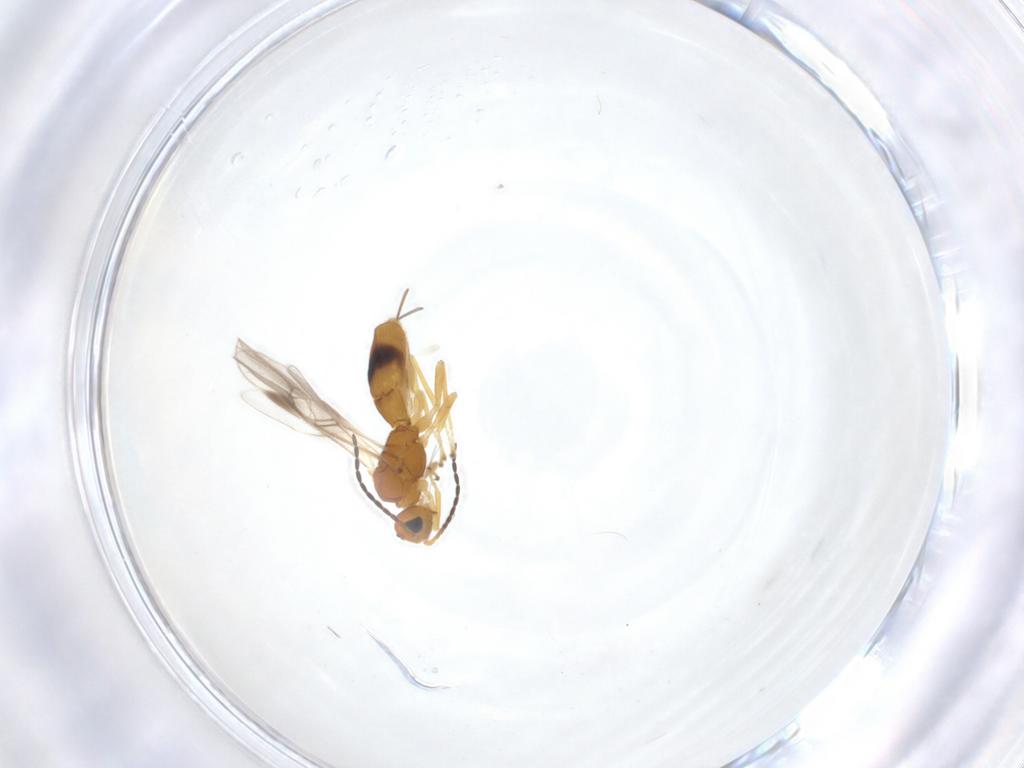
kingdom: Animalia
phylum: Arthropoda
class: Insecta
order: Hymenoptera
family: Braconidae
